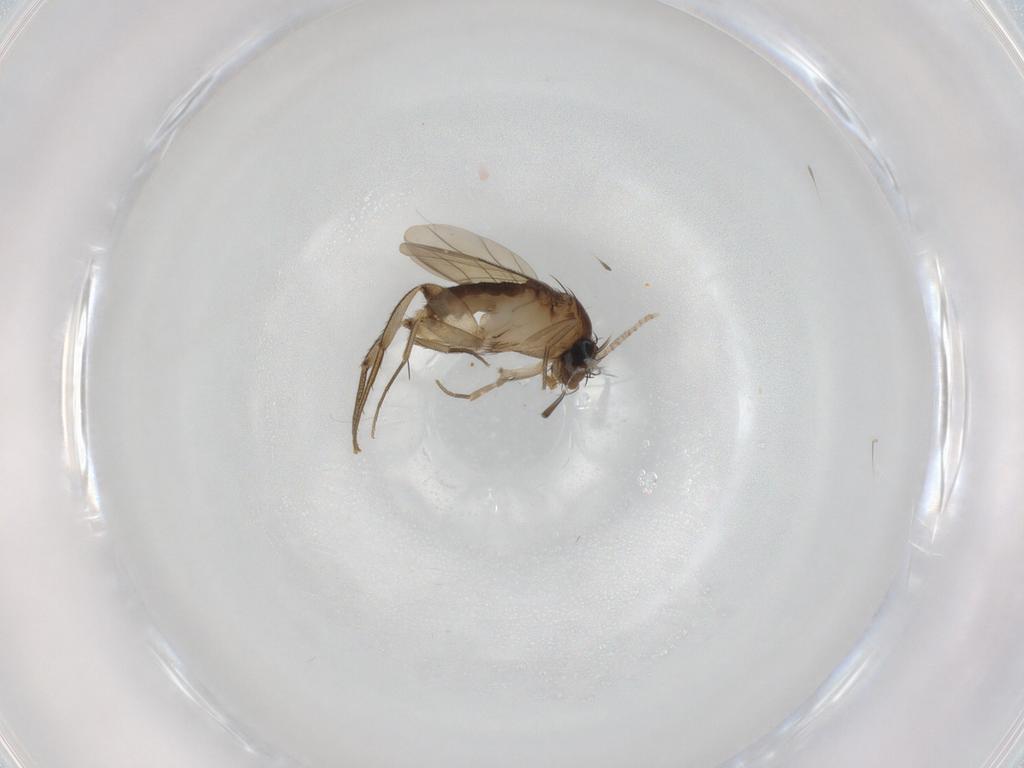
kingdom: Animalia
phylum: Arthropoda
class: Insecta
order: Diptera
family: Phoridae
